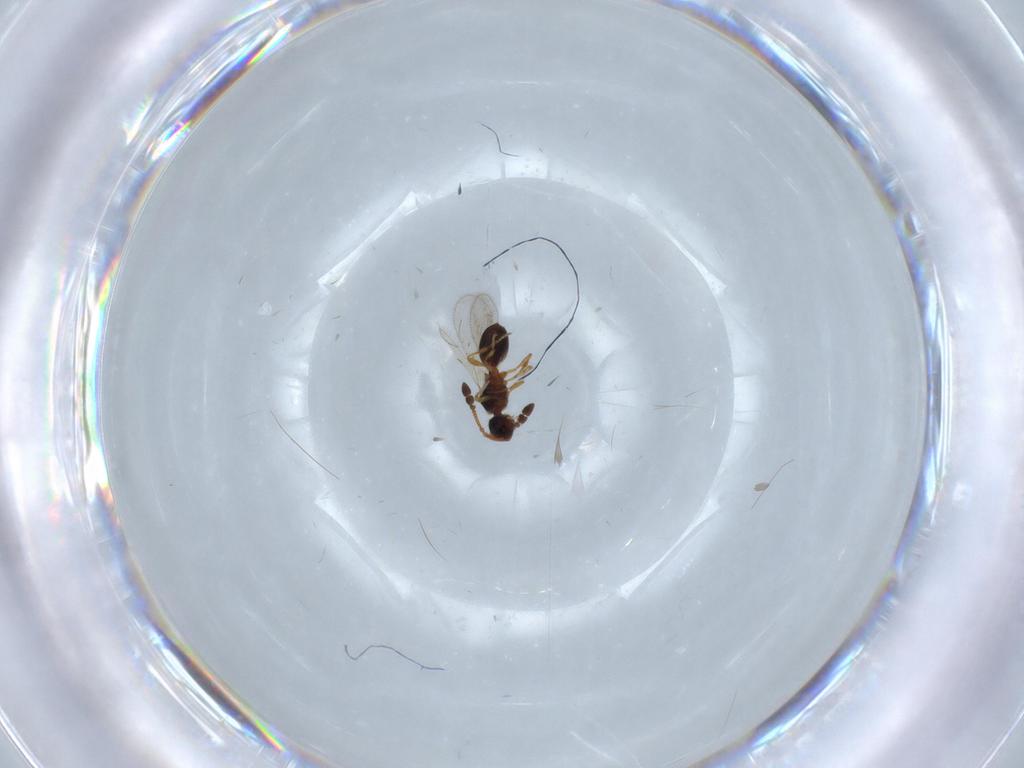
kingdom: Animalia
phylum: Arthropoda
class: Insecta
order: Hymenoptera
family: Diapriidae
